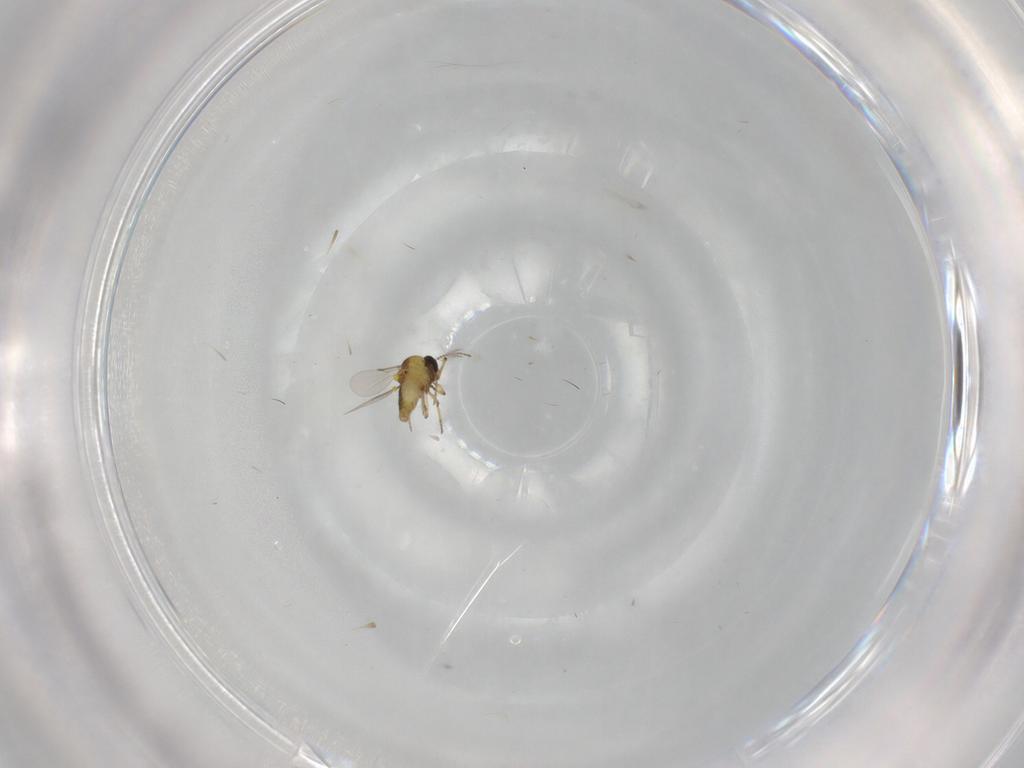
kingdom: Animalia
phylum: Arthropoda
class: Insecta
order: Diptera
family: Ceratopogonidae
